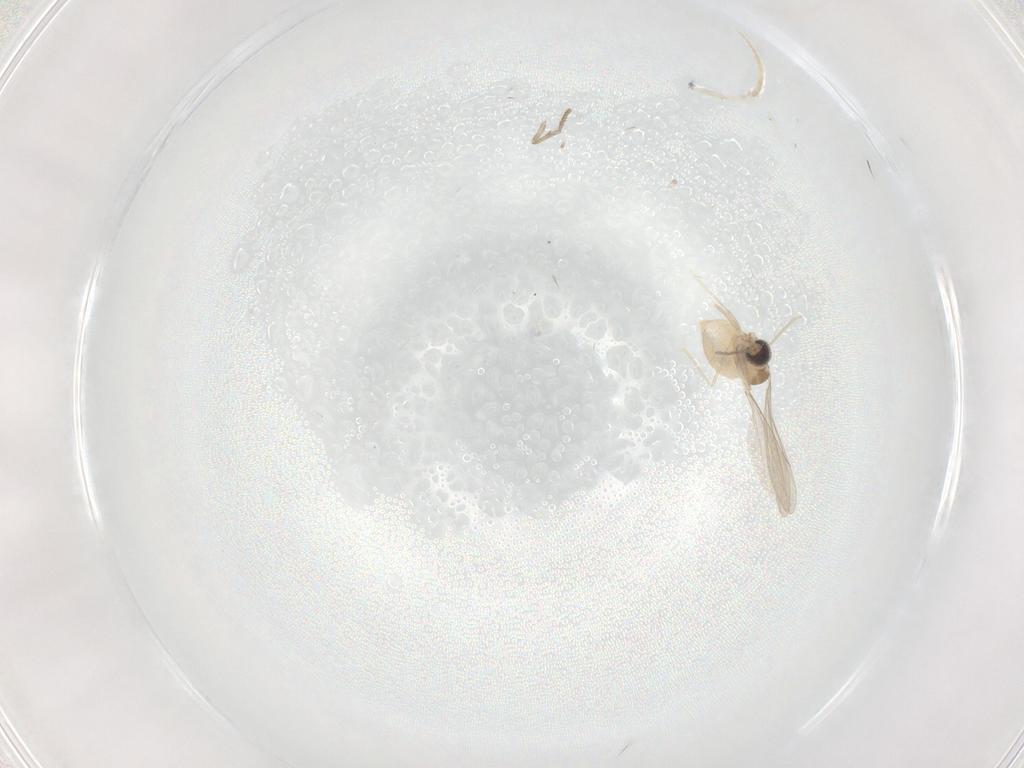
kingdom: Animalia
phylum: Arthropoda
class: Insecta
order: Diptera
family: Psychodidae
